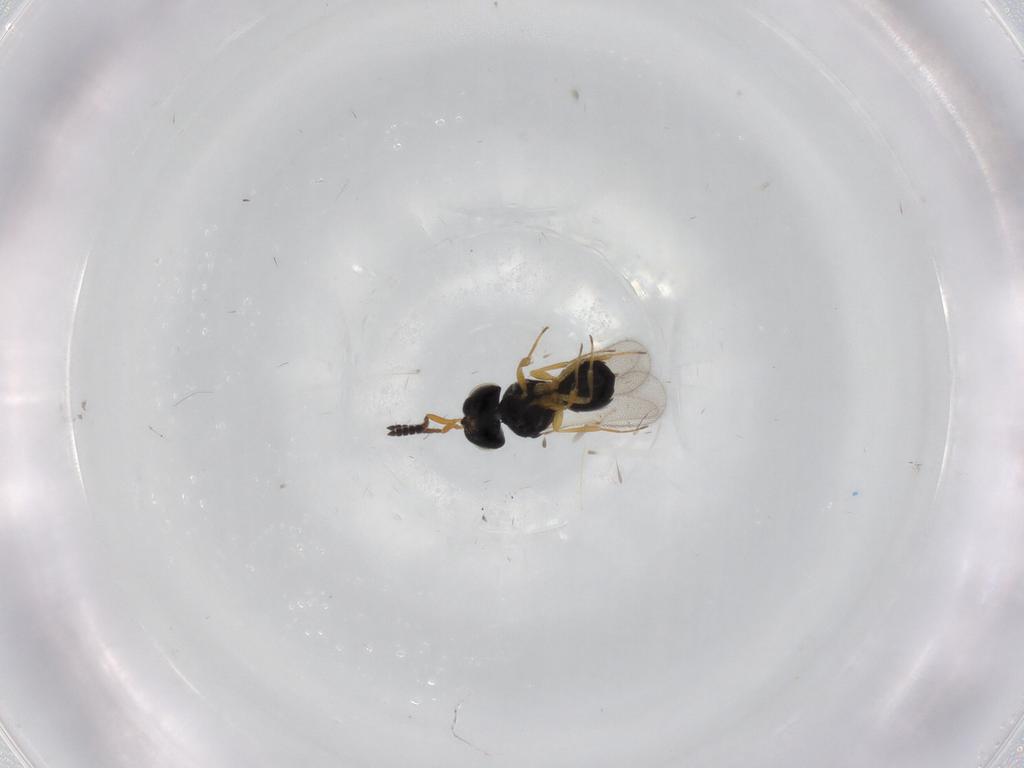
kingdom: Animalia
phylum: Arthropoda
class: Insecta
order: Hymenoptera
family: Scelionidae
